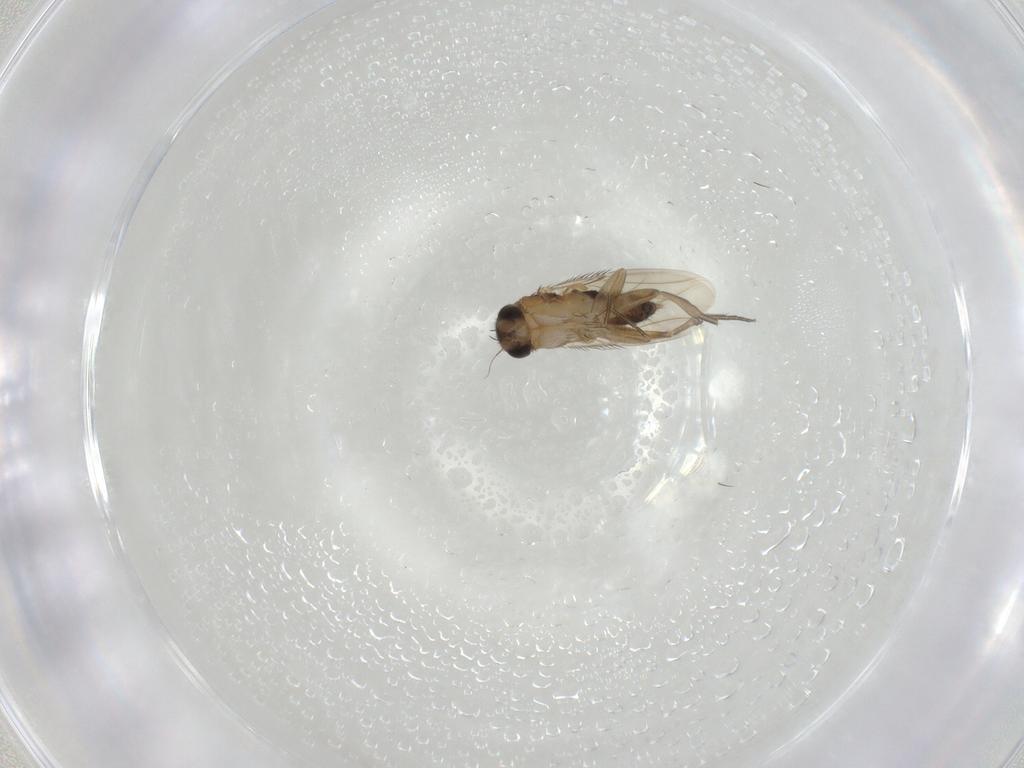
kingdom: Animalia
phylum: Arthropoda
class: Insecta
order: Diptera
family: Phoridae
